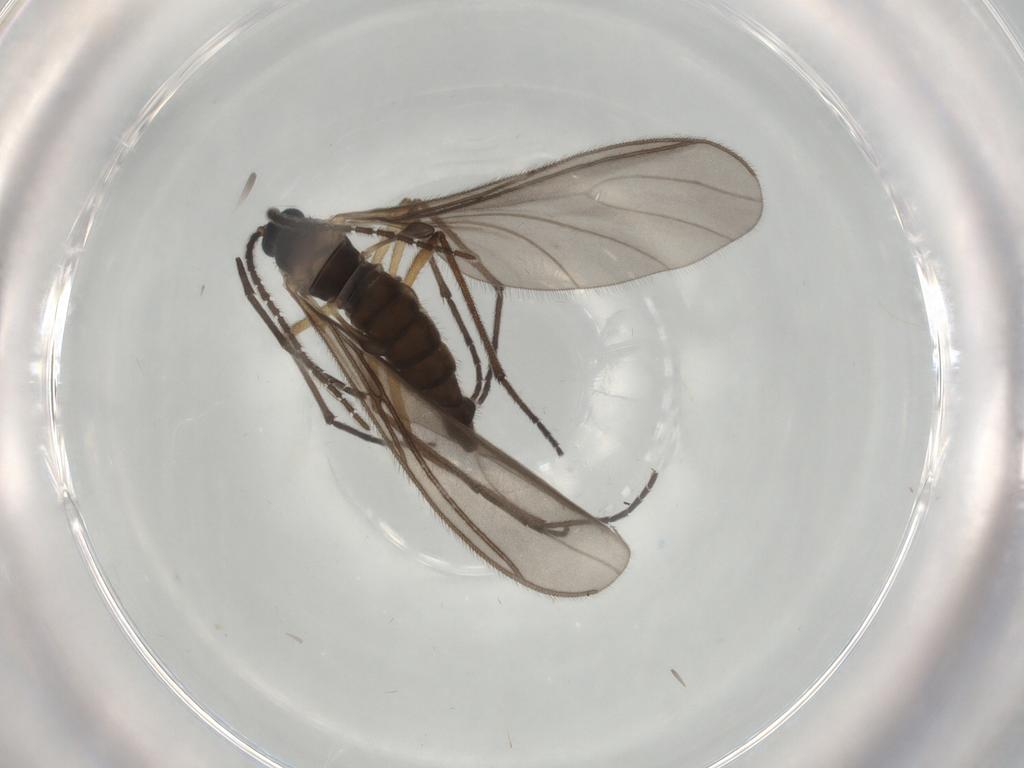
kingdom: Animalia
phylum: Arthropoda
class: Insecta
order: Diptera
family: Sciaridae
